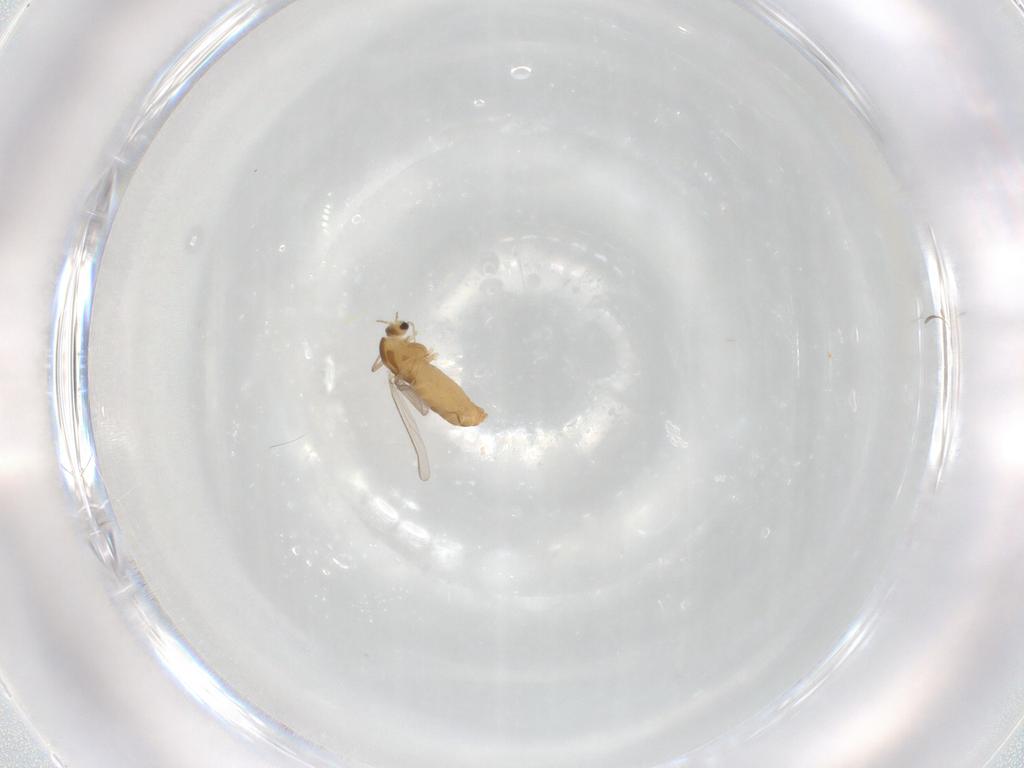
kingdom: Animalia
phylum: Arthropoda
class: Insecta
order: Diptera
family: Chironomidae
